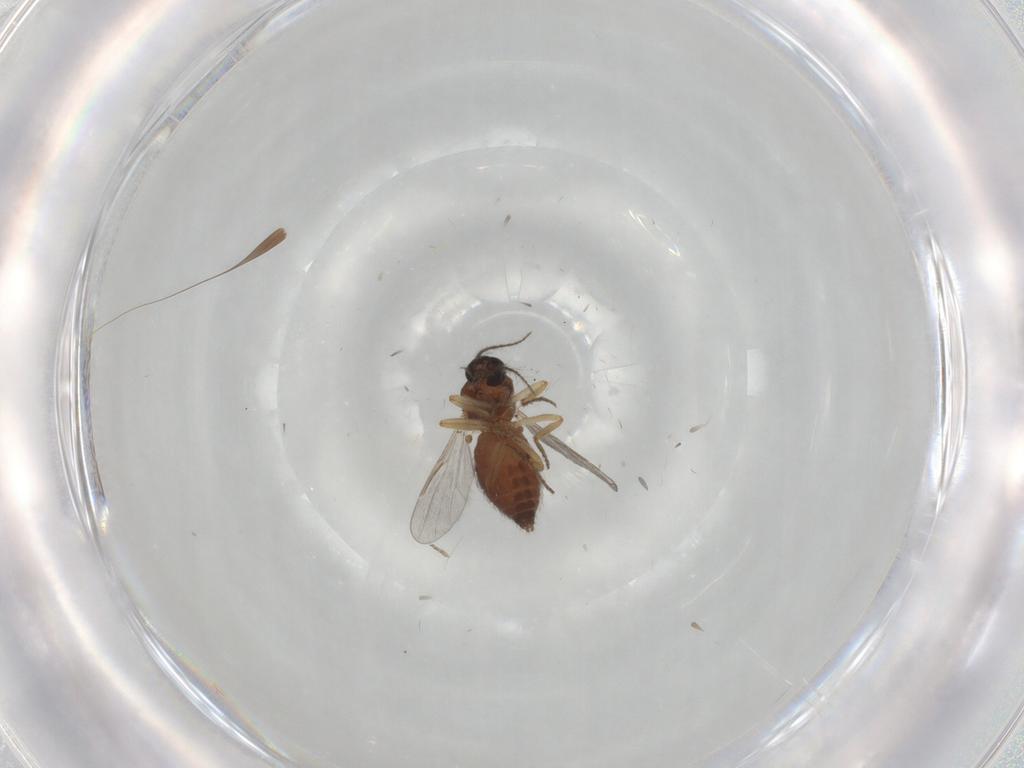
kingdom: Animalia
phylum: Arthropoda
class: Insecta
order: Diptera
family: Ceratopogonidae
